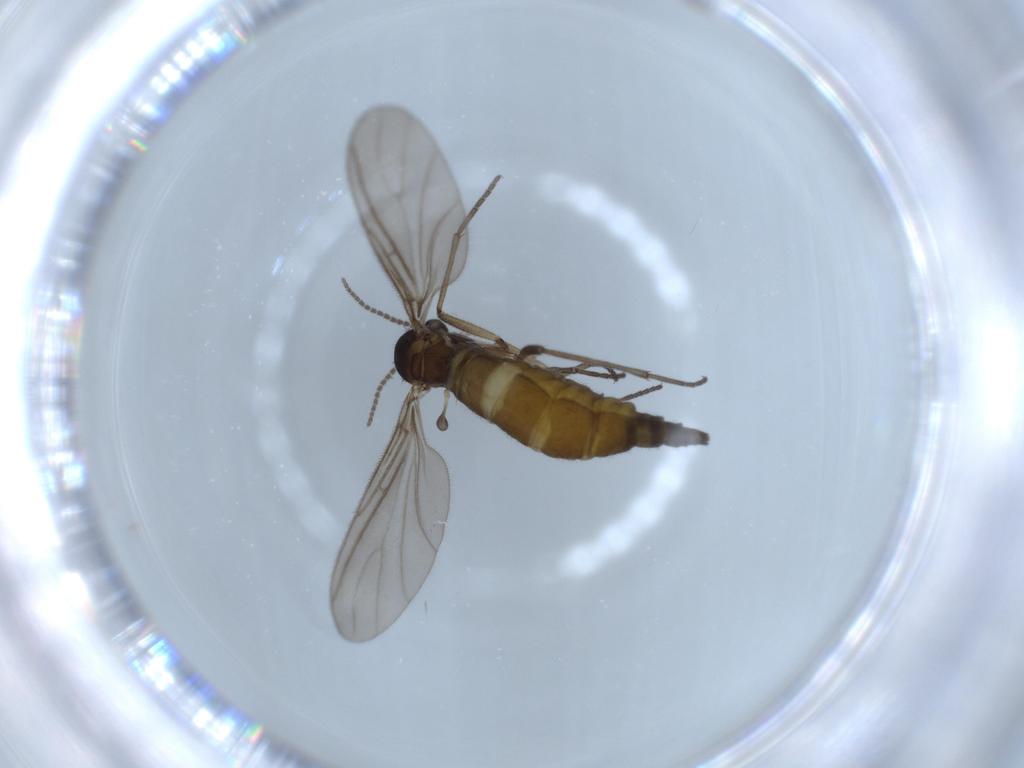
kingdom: Animalia
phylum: Arthropoda
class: Insecta
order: Diptera
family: Sciaridae
